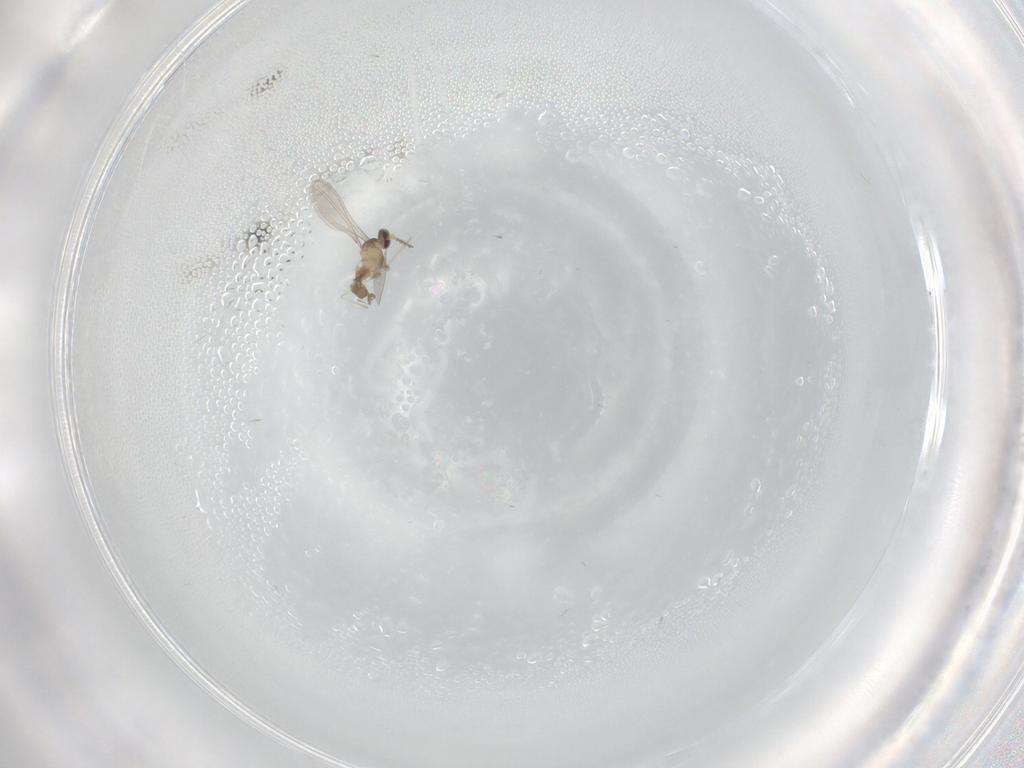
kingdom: Animalia
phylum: Arthropoda
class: Insecta
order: Diptera
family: Cecidomyiidae
